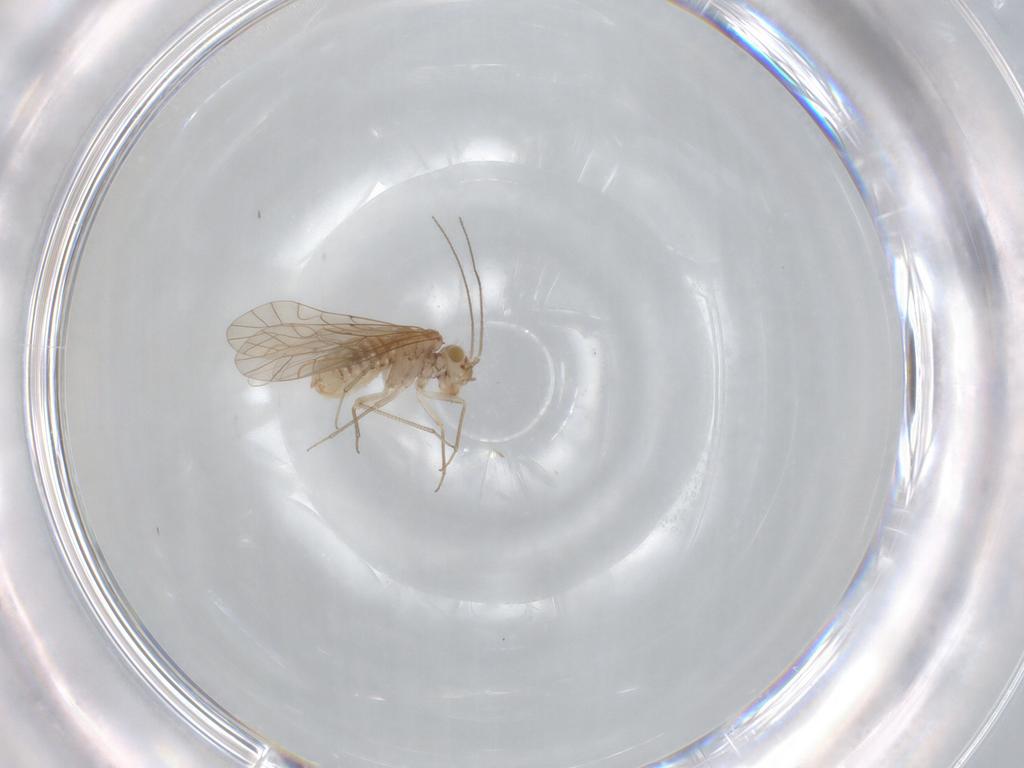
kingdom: Animalia
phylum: Arthropoda
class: Insecta
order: Psocodea
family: Lachesillidae
